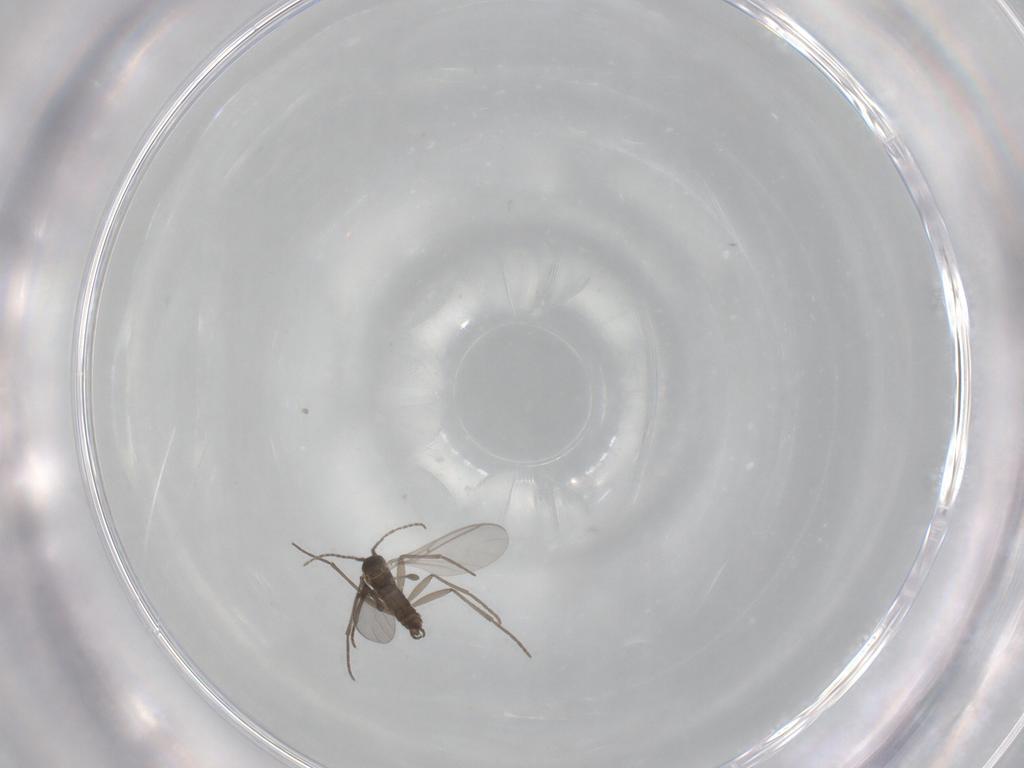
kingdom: Animalia
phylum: Arthropoda
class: Insecta
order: Diptera
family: Sciaridae
